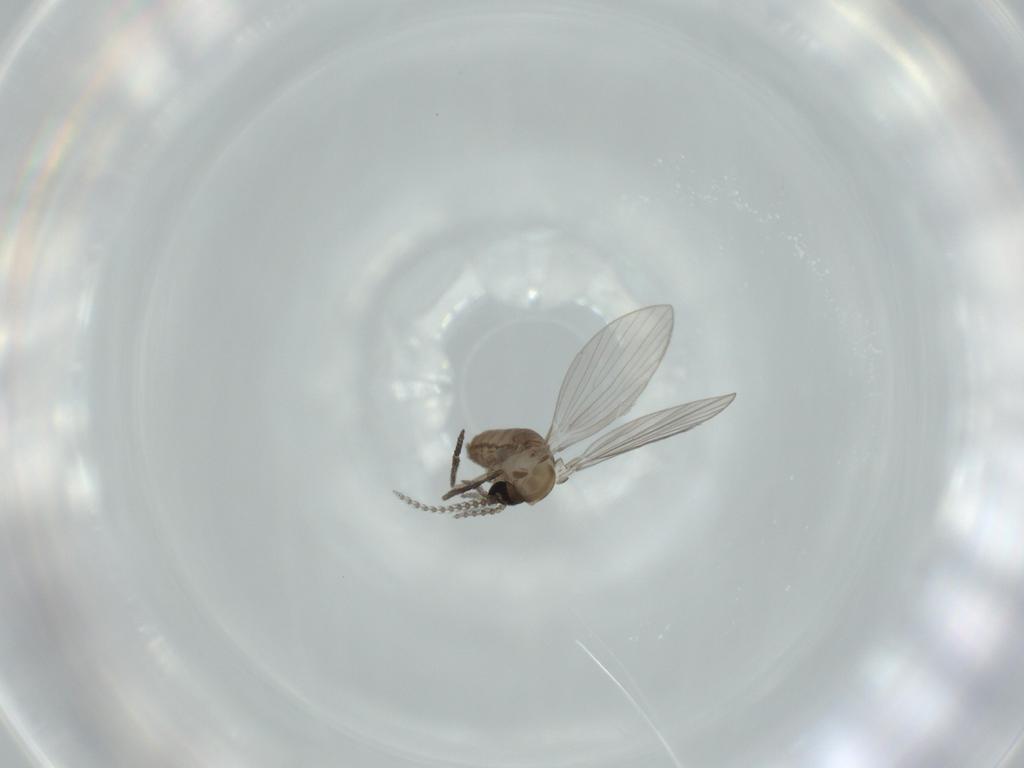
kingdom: Animalia
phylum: Arthropoda
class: Insecta
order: Diptera
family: Psychodidae
